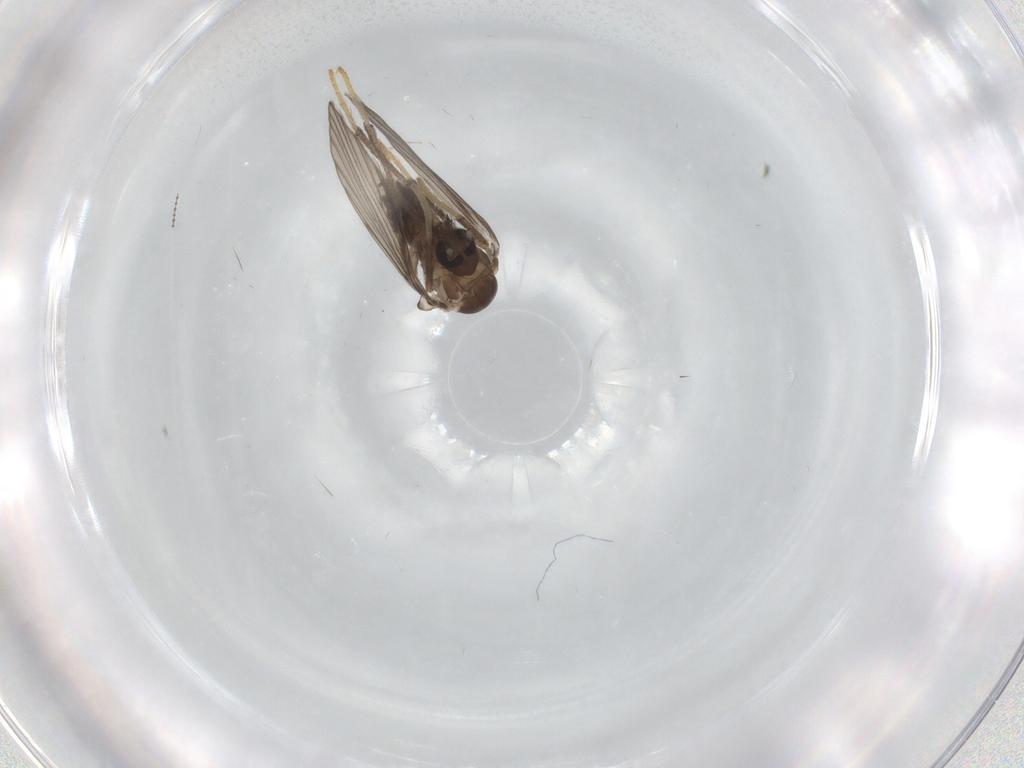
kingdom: Animalia
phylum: Arthropoda
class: Insecta
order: Diptera
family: Psychodidae
